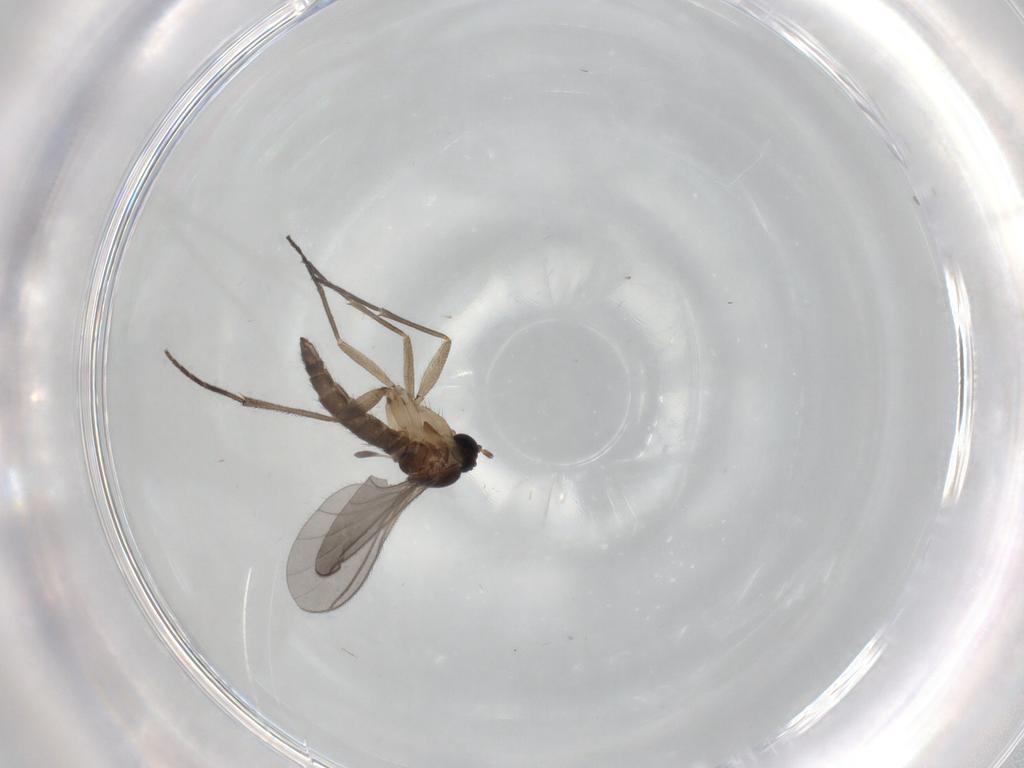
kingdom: Animalia
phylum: Arthropoda
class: Insecta
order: Diptera
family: Sciaridae
